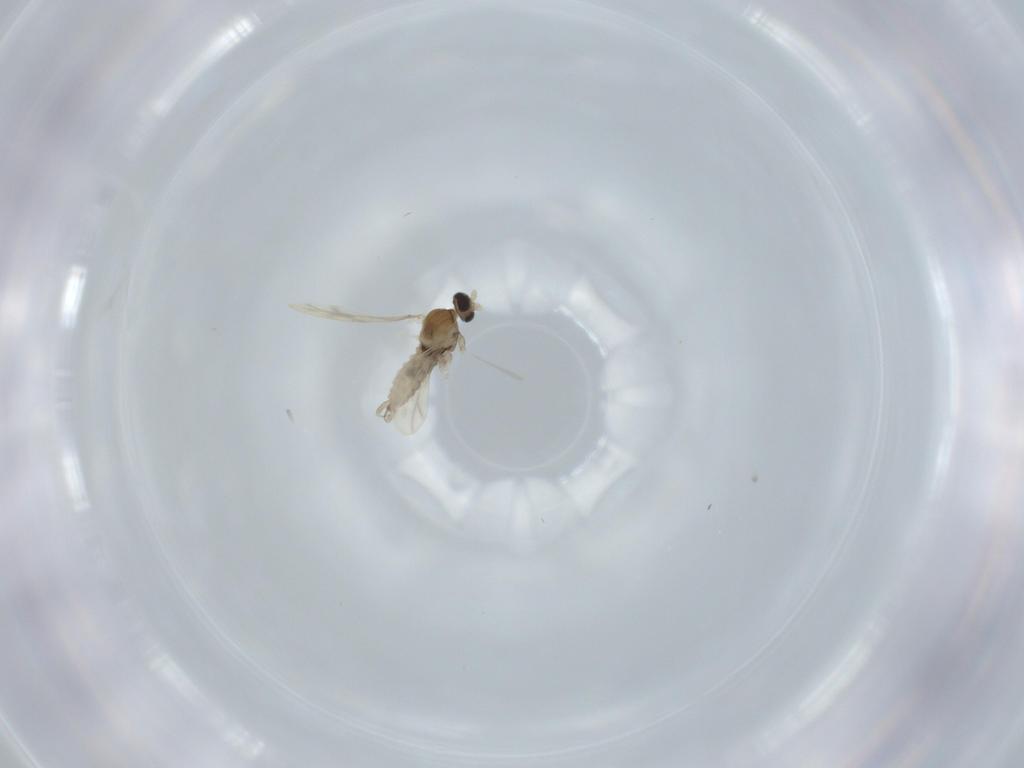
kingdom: Animalia
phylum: Arthropoda
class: Insecta
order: Diptera
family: Cecidomyiidae
